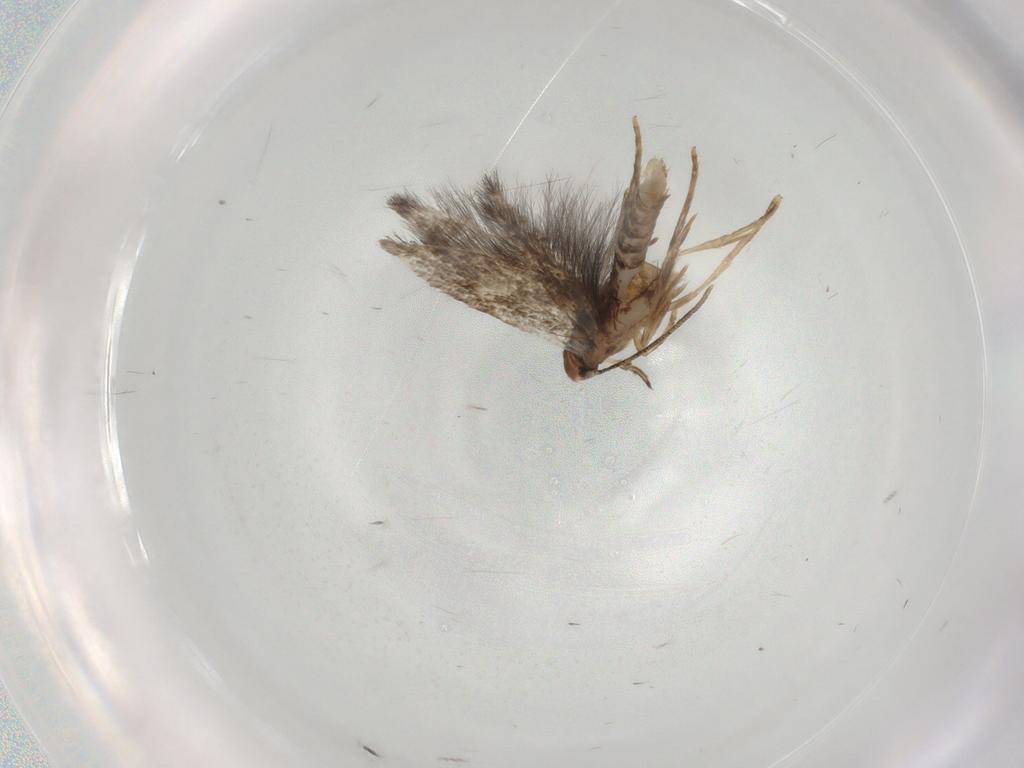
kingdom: Animalia
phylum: Arthropoda
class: Insecta
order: Lepidoptera
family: Gelechiidae
